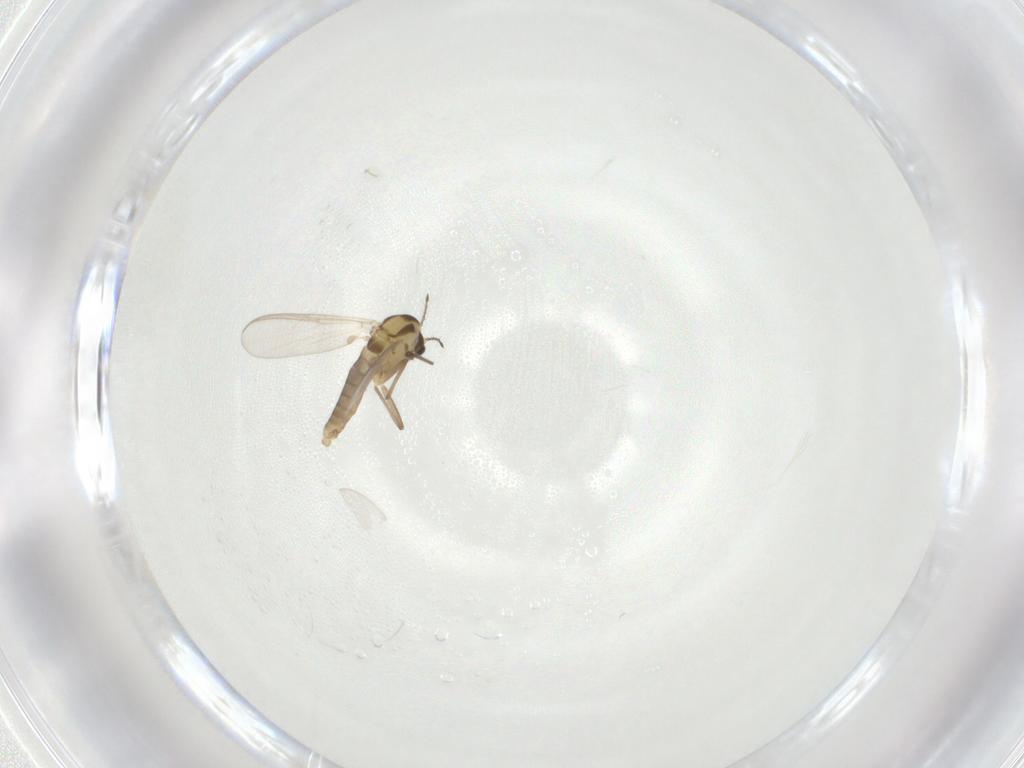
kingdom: Animalia
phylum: Arthropoda
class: Insecta
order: Diptera
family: Chironomidae
